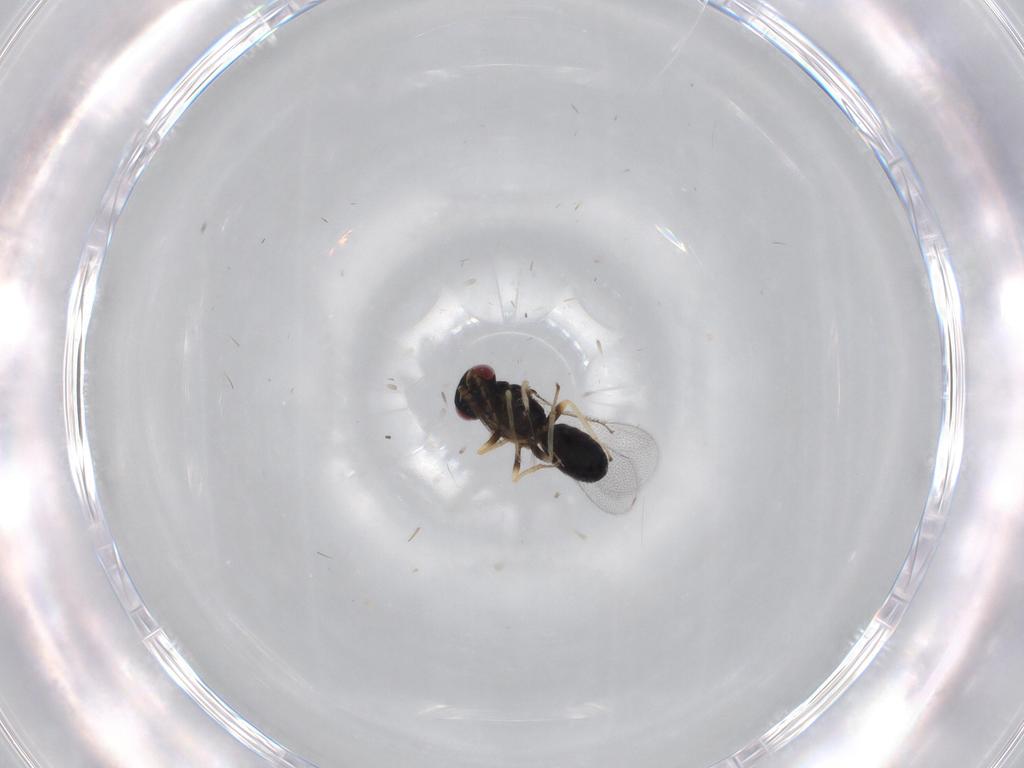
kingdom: Animalia
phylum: Arthropoda
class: Insecta
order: Hymenoptera
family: Eulophidae
